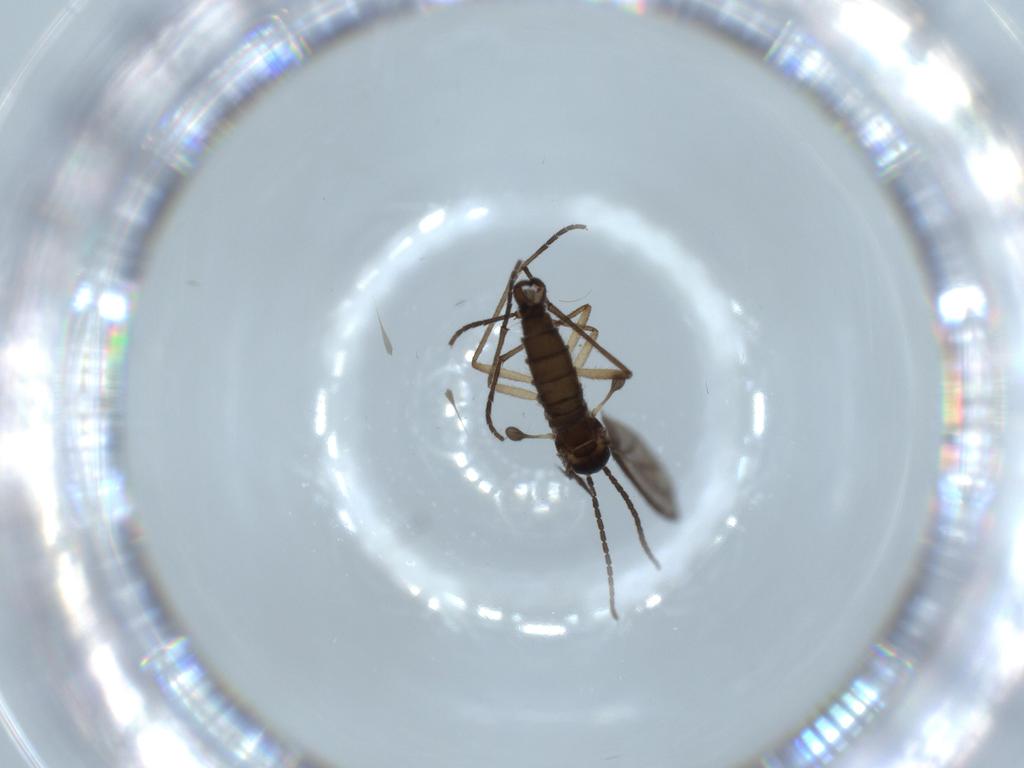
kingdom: Animalia
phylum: Arthropoda
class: Insecta
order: Diptera
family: Sciaridae
